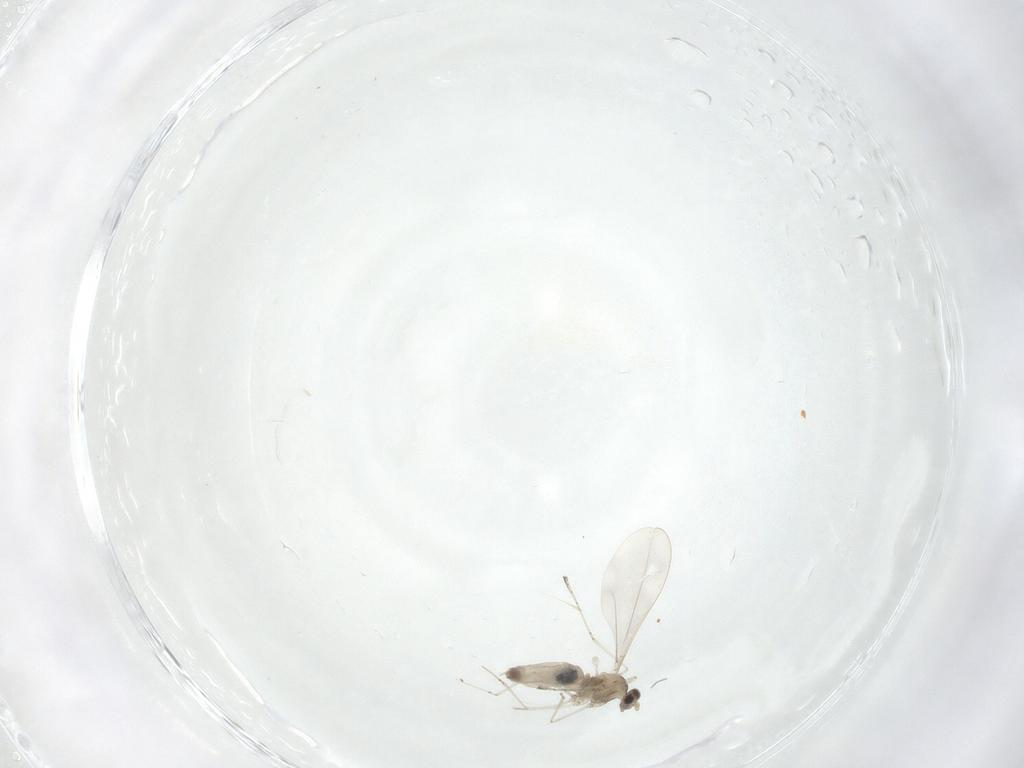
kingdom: Animalia
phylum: Arthropoda
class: Insecta
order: Diptera
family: Cecidomyiidae
